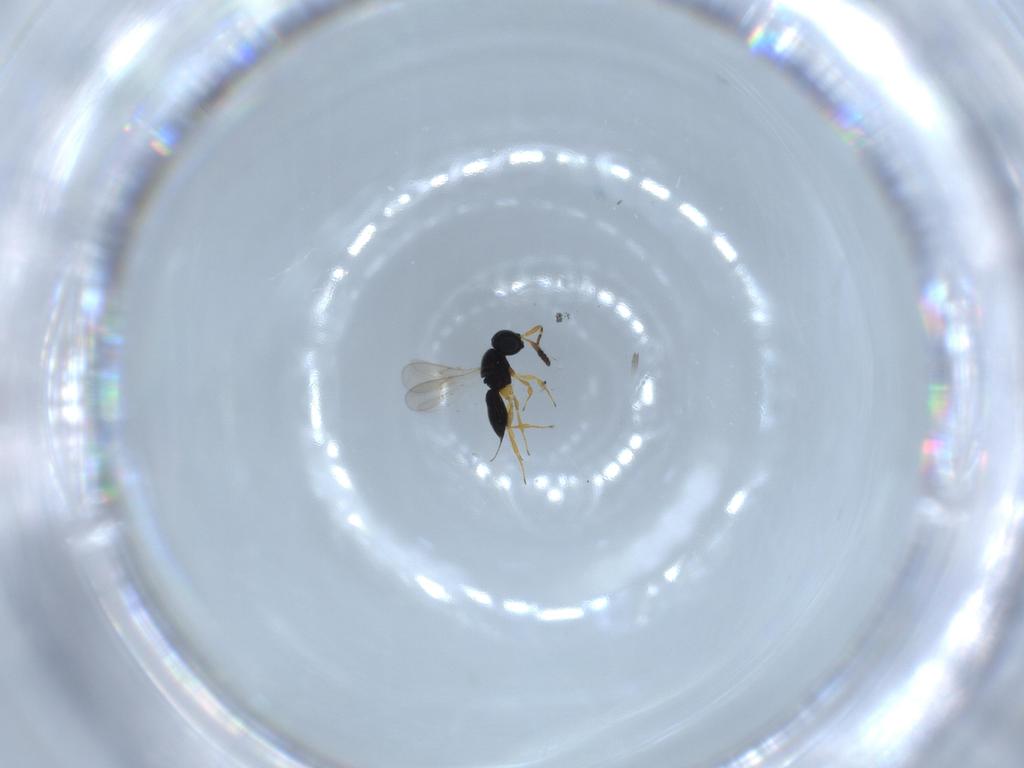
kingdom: Animalia
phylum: Arthropoda
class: Insecta
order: Hymenoptera
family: Scelionidae
